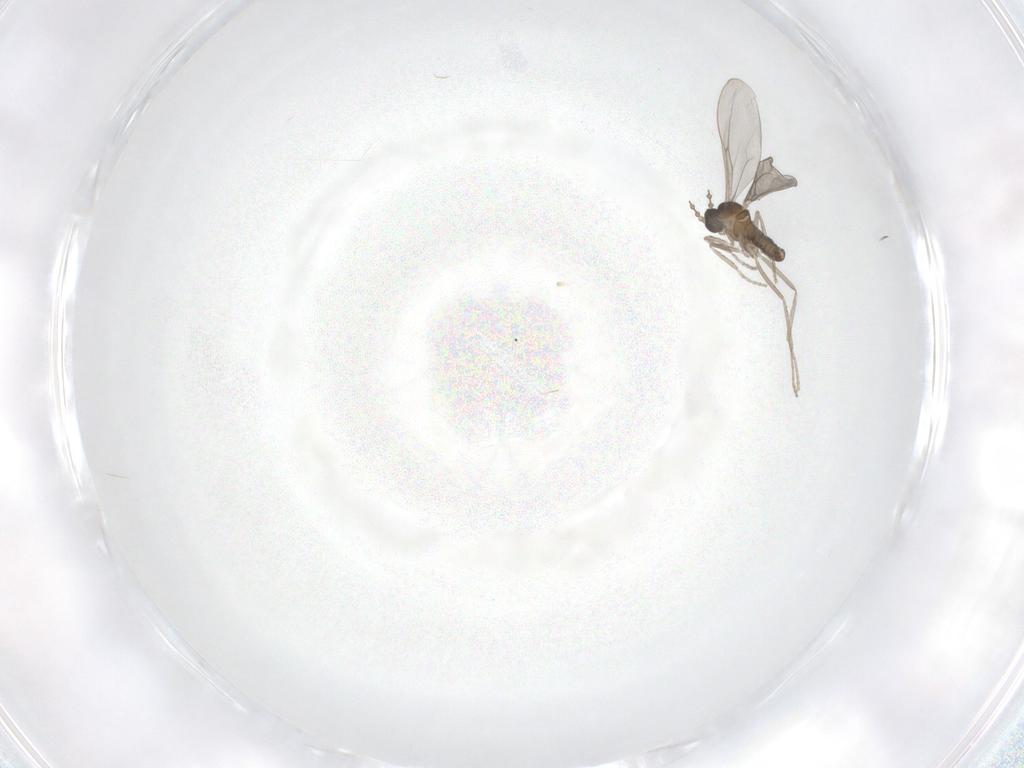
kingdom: Animalia
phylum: Arthropoda
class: Insecta
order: Diptera
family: Cecidomyiidae
